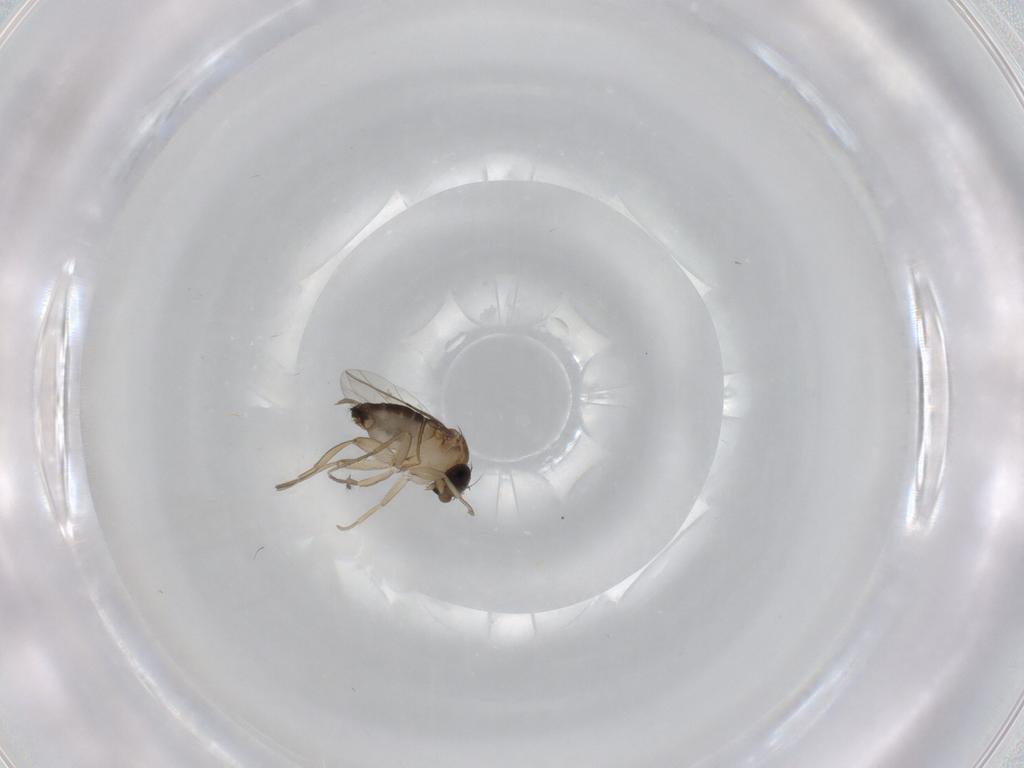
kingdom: Animalia
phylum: Arthropoda
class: Insecta
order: Diptera
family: Cecidomyiidae
